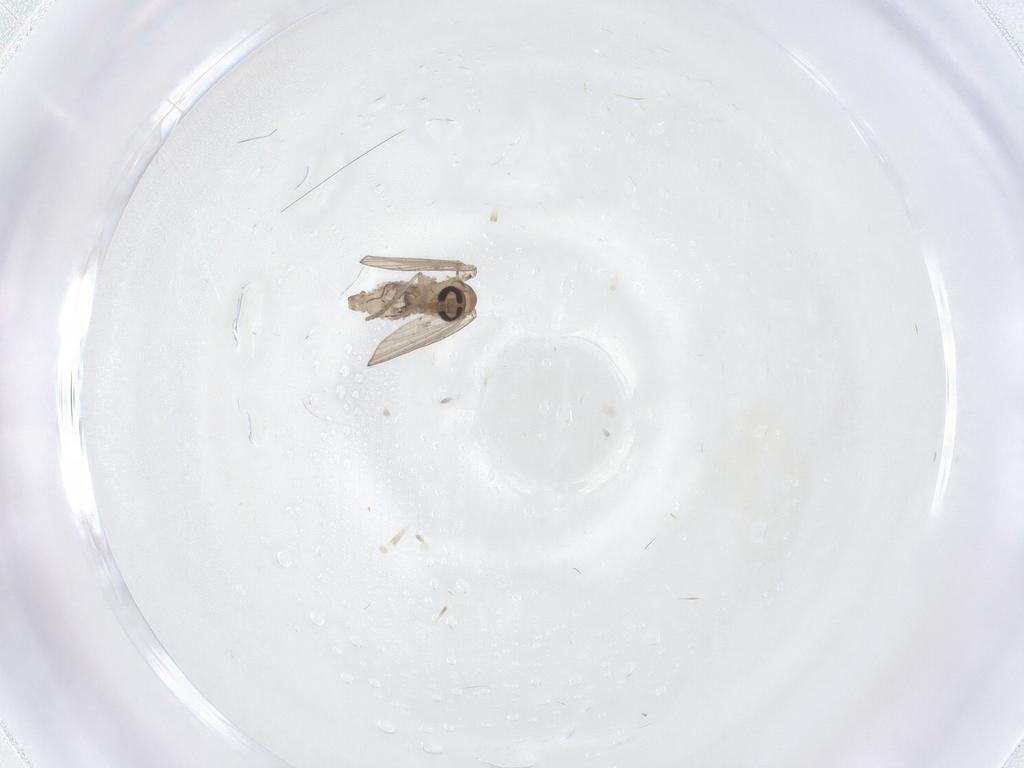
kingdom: Animalia
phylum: Arthropoda
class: Insecta
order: Diptera
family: Psychodidae
